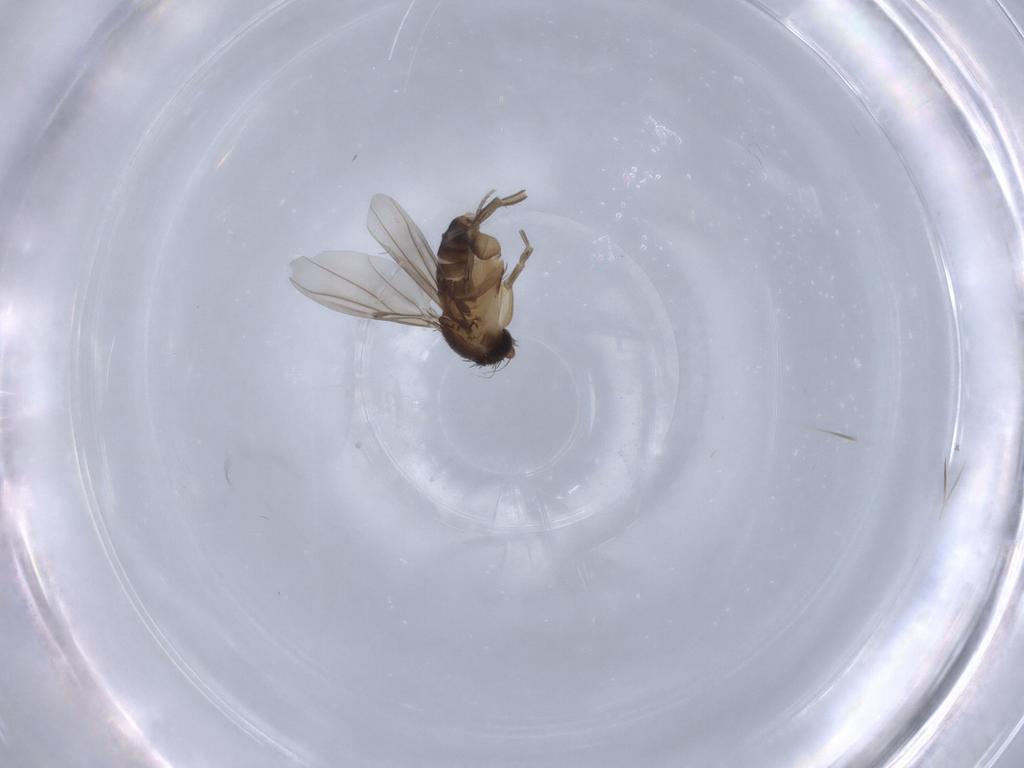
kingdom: Animalia
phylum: Arthropoda
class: Insecta
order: Diptera
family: Sciaridae
